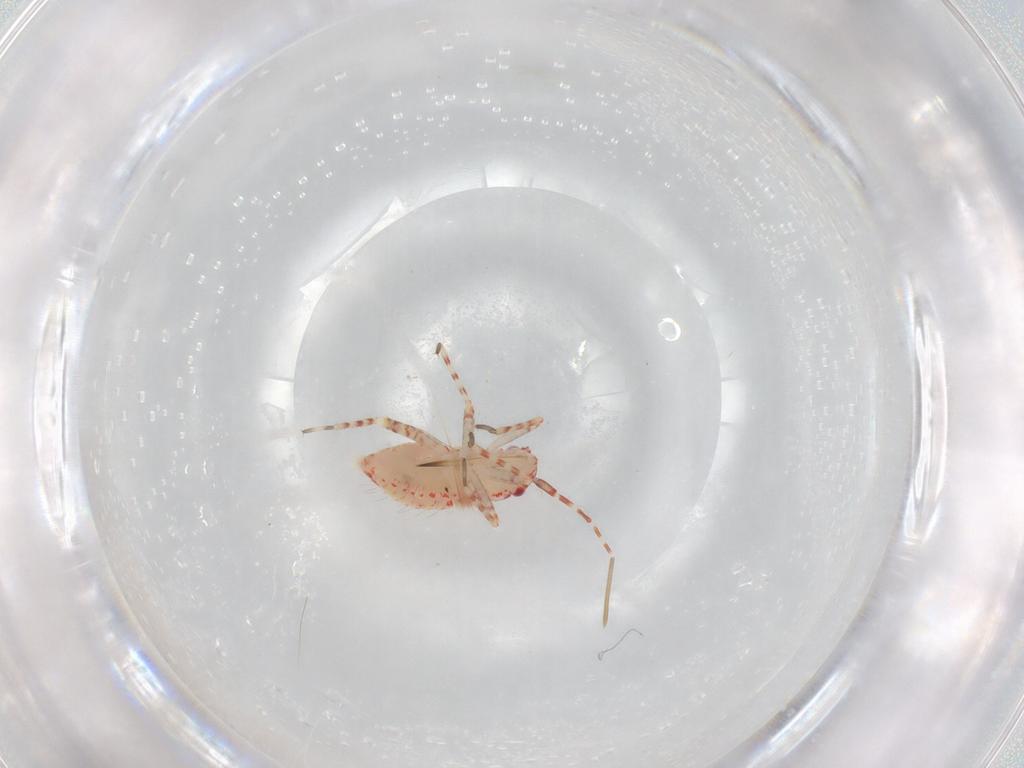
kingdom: Animalia
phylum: Arthropoda
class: Insecta
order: Hemiptera
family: Miridae
